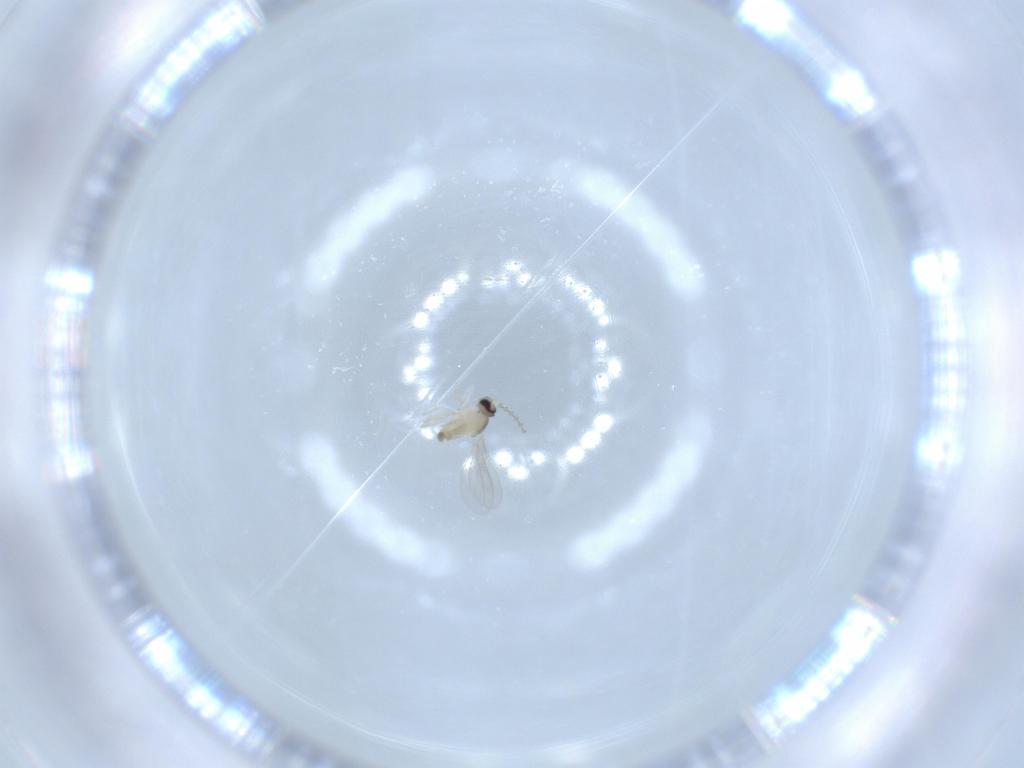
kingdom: Animalia
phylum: Arthropoda
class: Insecta
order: Diptera
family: Cecidomyiidae
